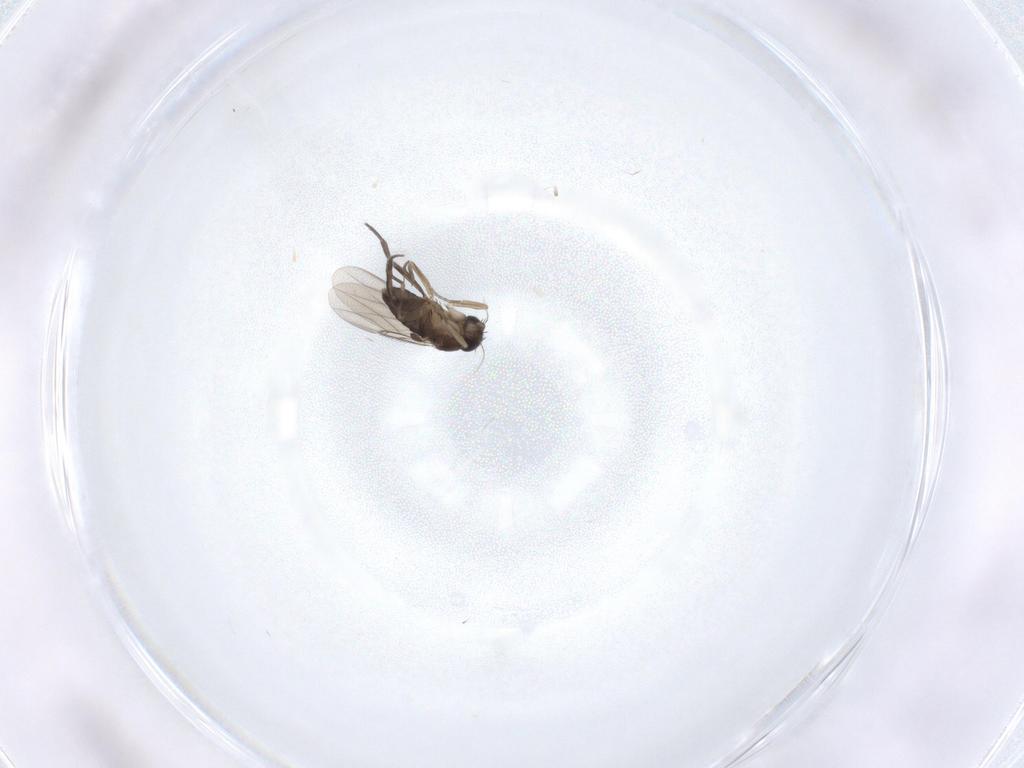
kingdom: Animalia
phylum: Arthropoda
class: Insecta
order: Diptera
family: Phoridae
